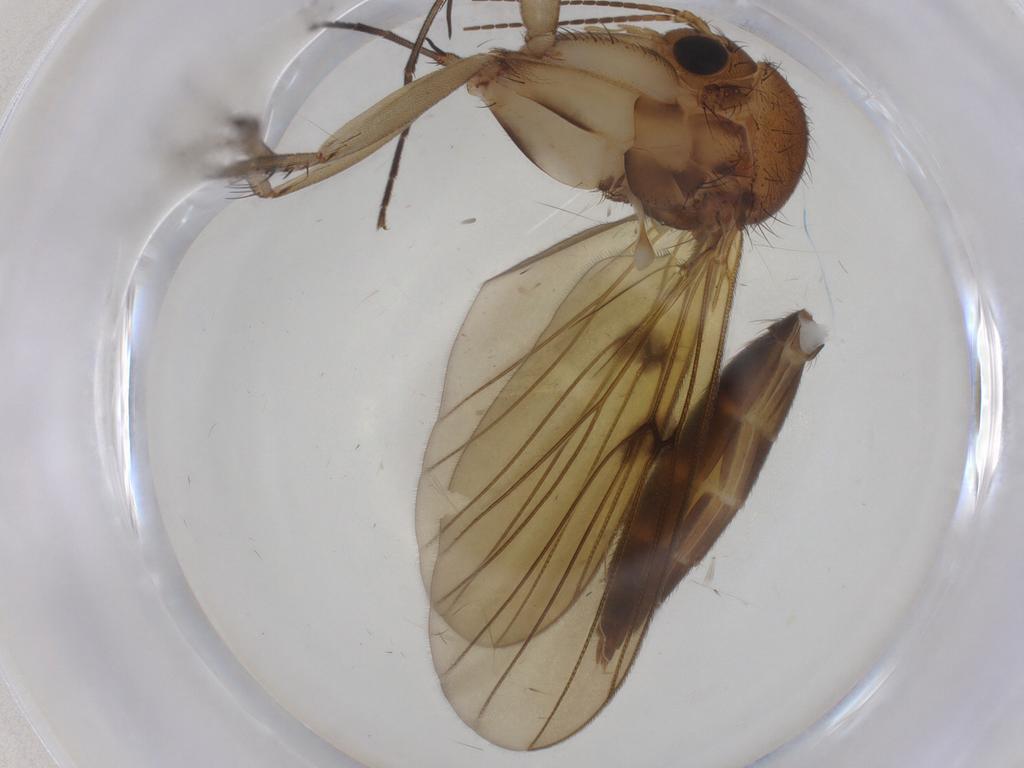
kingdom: Animalia
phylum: Arthropoda
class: Insecta
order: Diptera
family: Mycetophilidae
